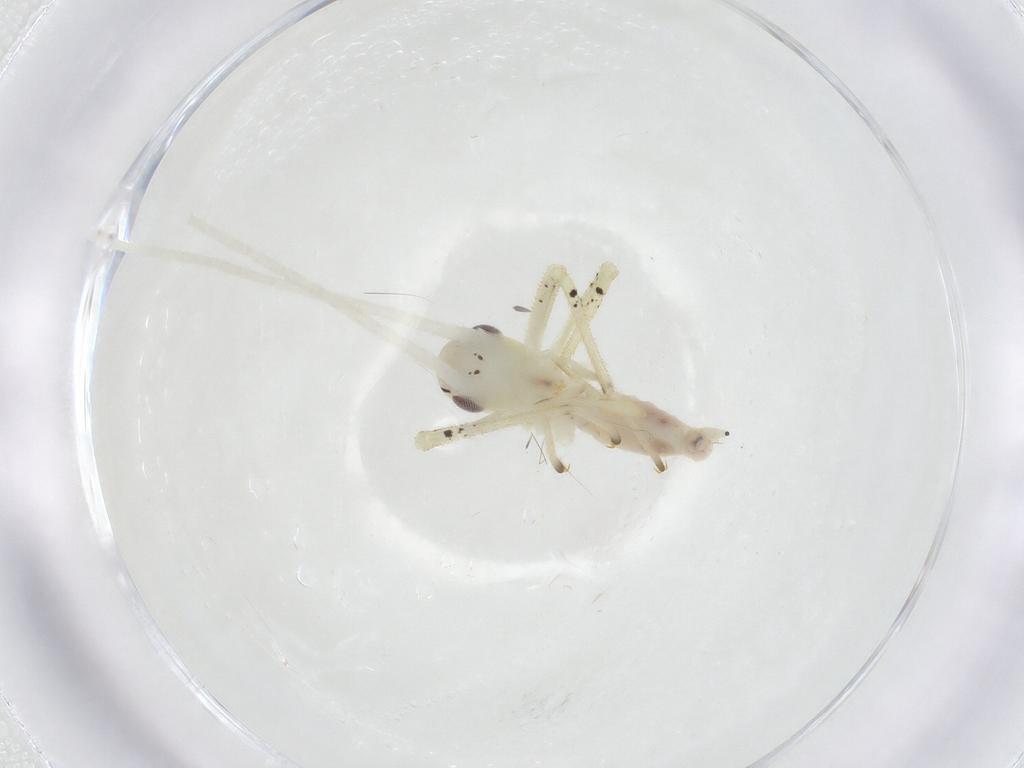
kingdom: Animalia
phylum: Arthropoda
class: Insecta
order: Orthoptera
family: Oecanthidae
